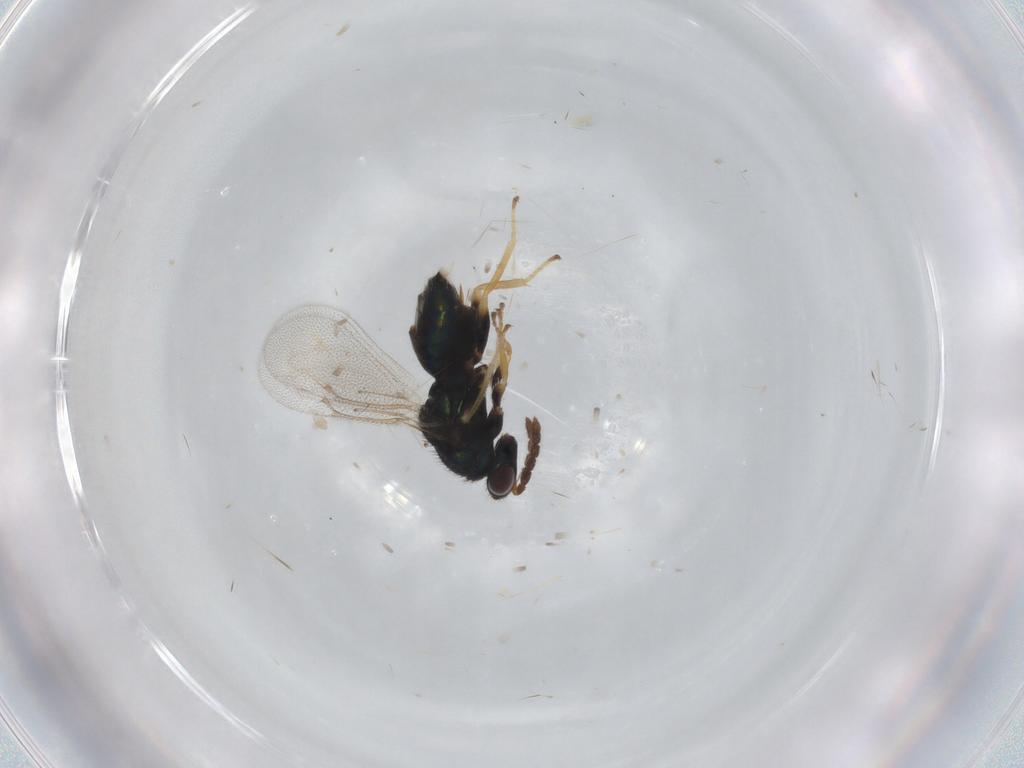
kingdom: Animalia
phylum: Arthropoda
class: Insecta
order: Hymenoptera
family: Eulophidae
